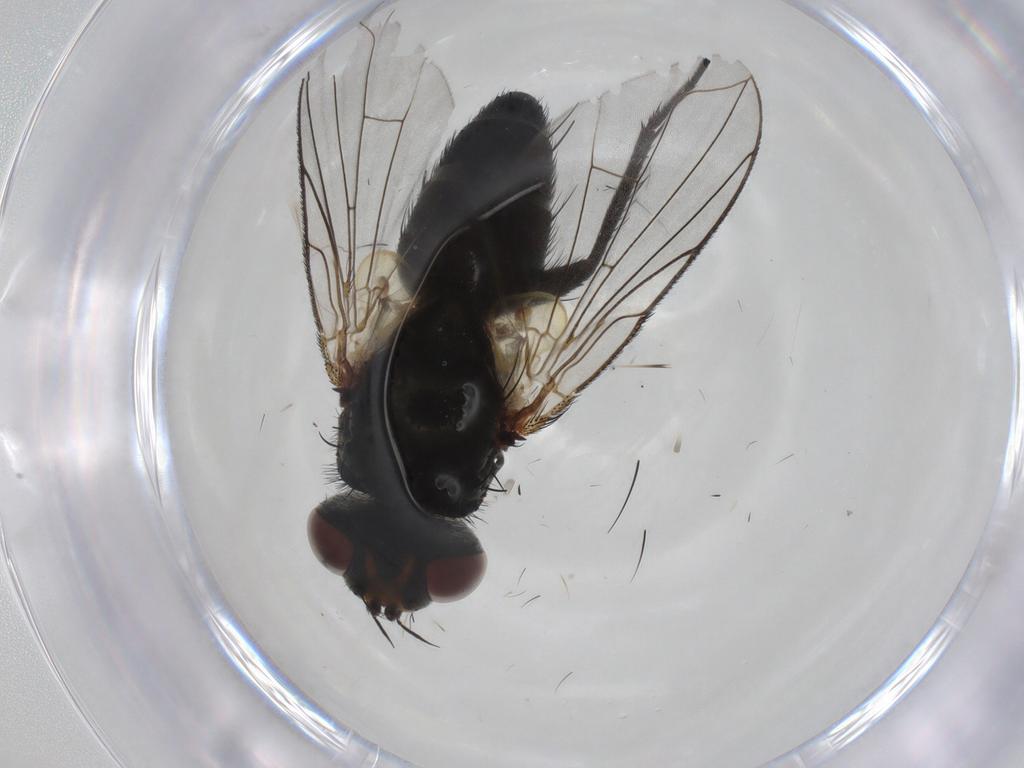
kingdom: Animalia
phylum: Arthropoda
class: Insecta
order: Diptera
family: Tachinidae
